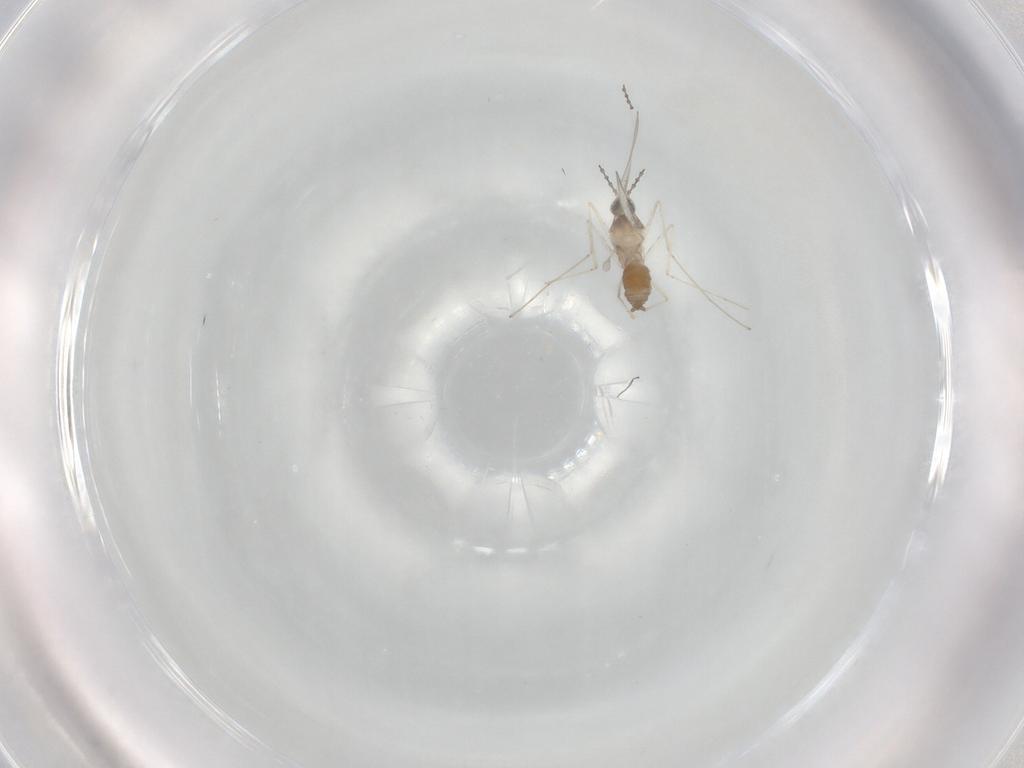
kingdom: Animalia
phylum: Arthropoda
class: Insecta
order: Diptera
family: Cecidomyiidae
